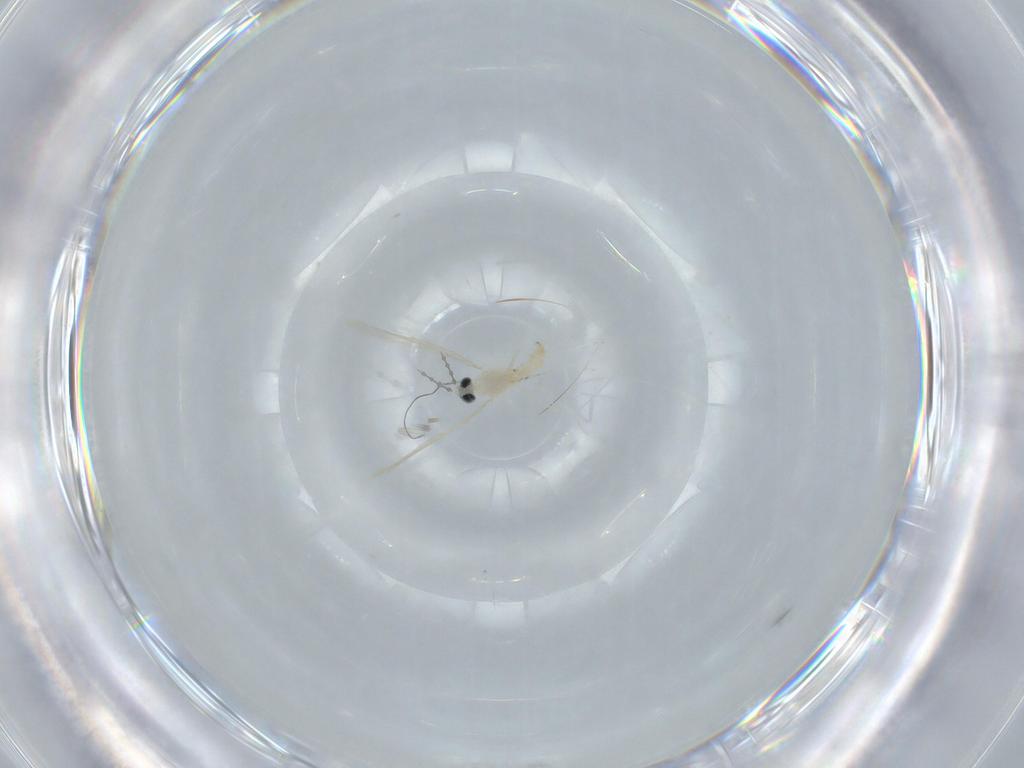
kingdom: Animalia
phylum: Arthropoda
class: Insecta
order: Diptera
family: Cecidomyiidae
